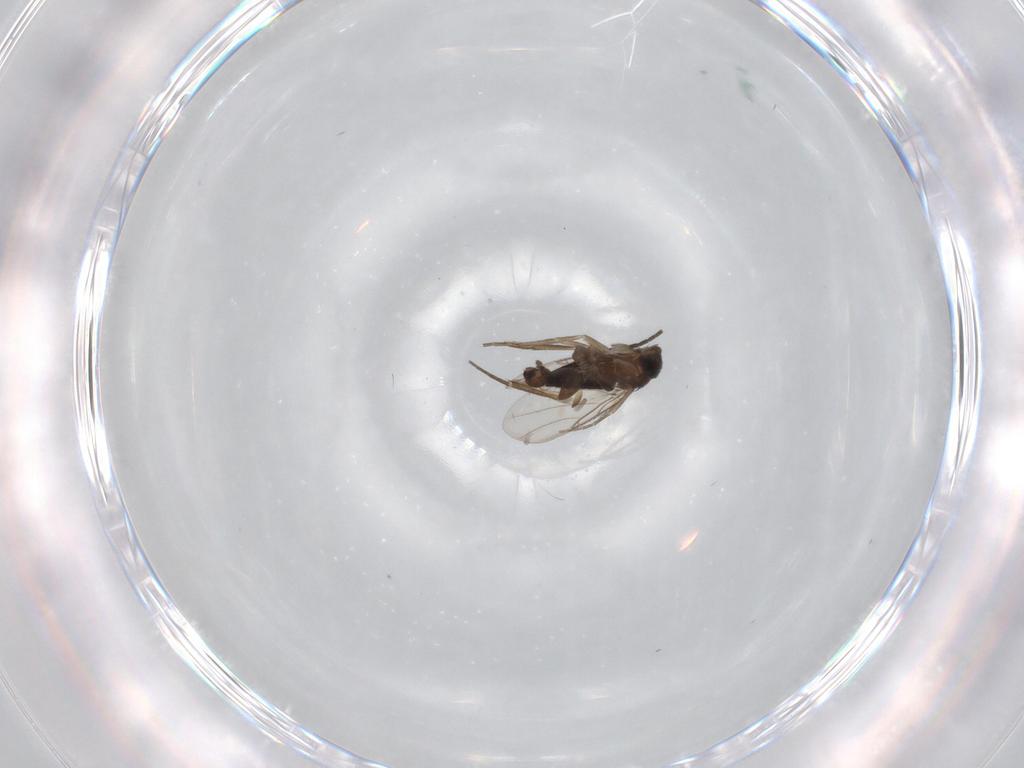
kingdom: Animalia
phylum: Arthropoda
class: Insecta
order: Diptera
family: Phoridae
